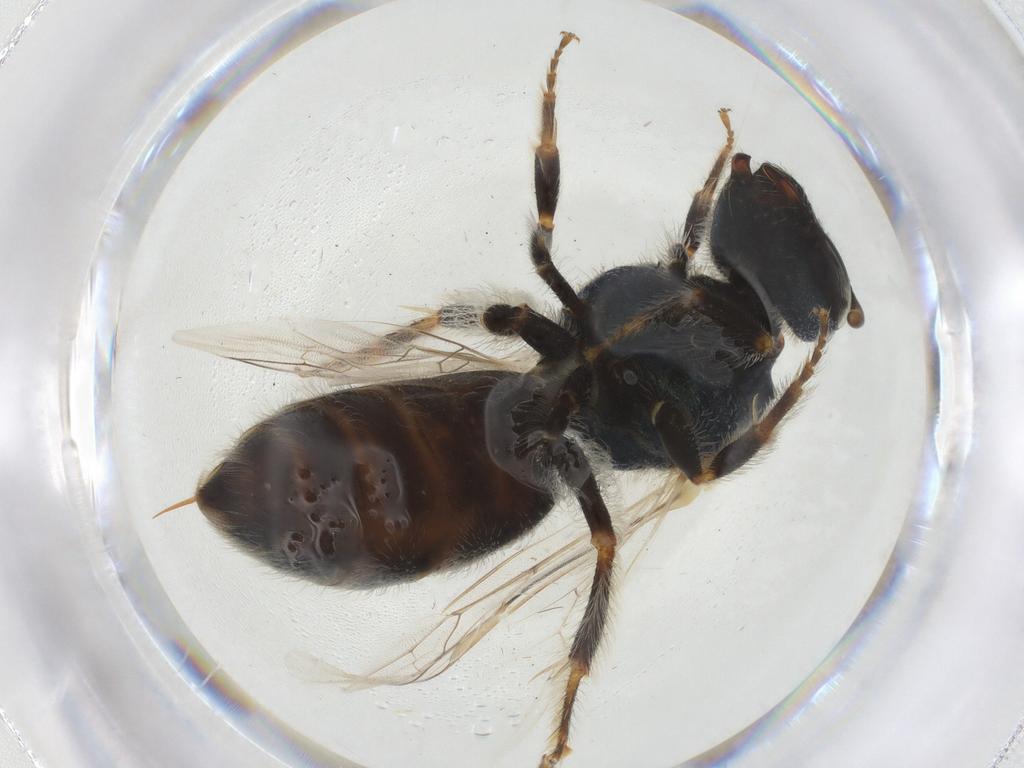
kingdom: Animalia
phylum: Arthropoda
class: Insecta
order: Hymenoptera
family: Halictidae
